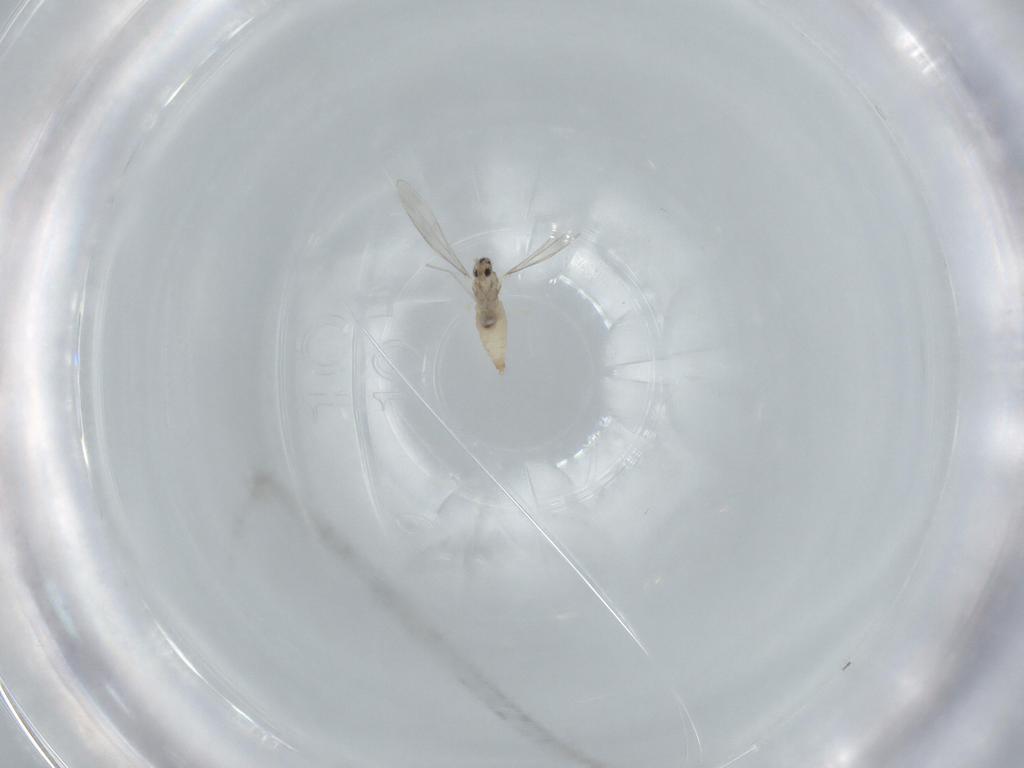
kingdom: Animalia
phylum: Arthropoda
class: Insecta
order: Diptera
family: Cecidomyiidae
